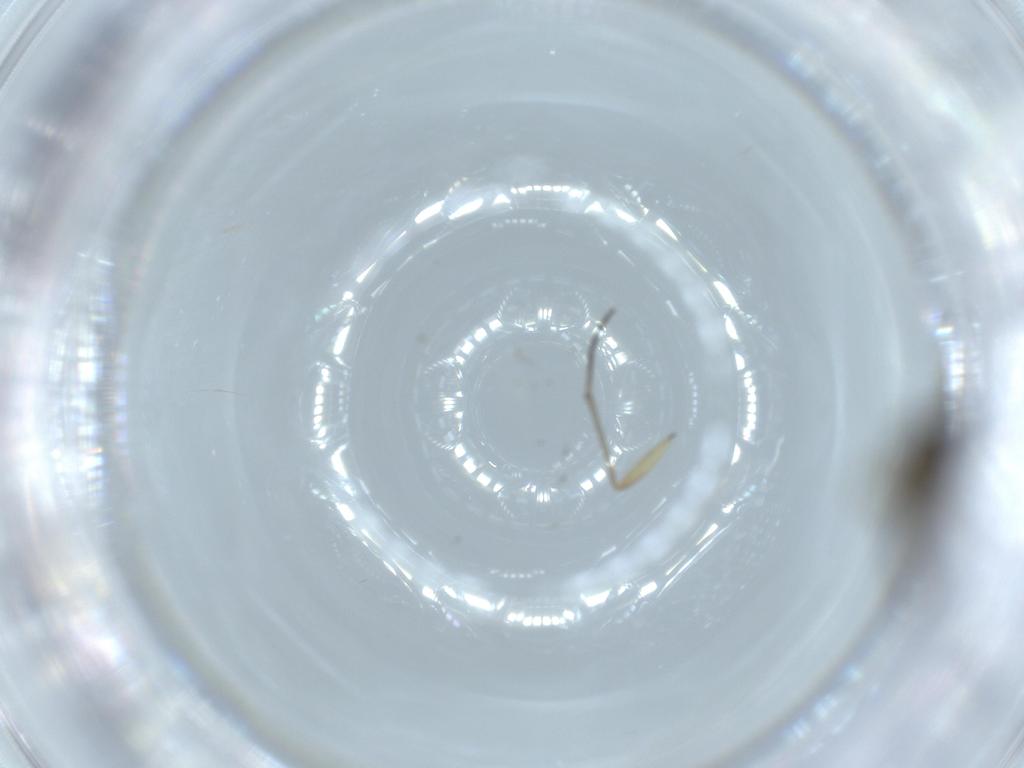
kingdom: Animalia
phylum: Arthropoda
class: Insecta
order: Diptera
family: Sciaridae
